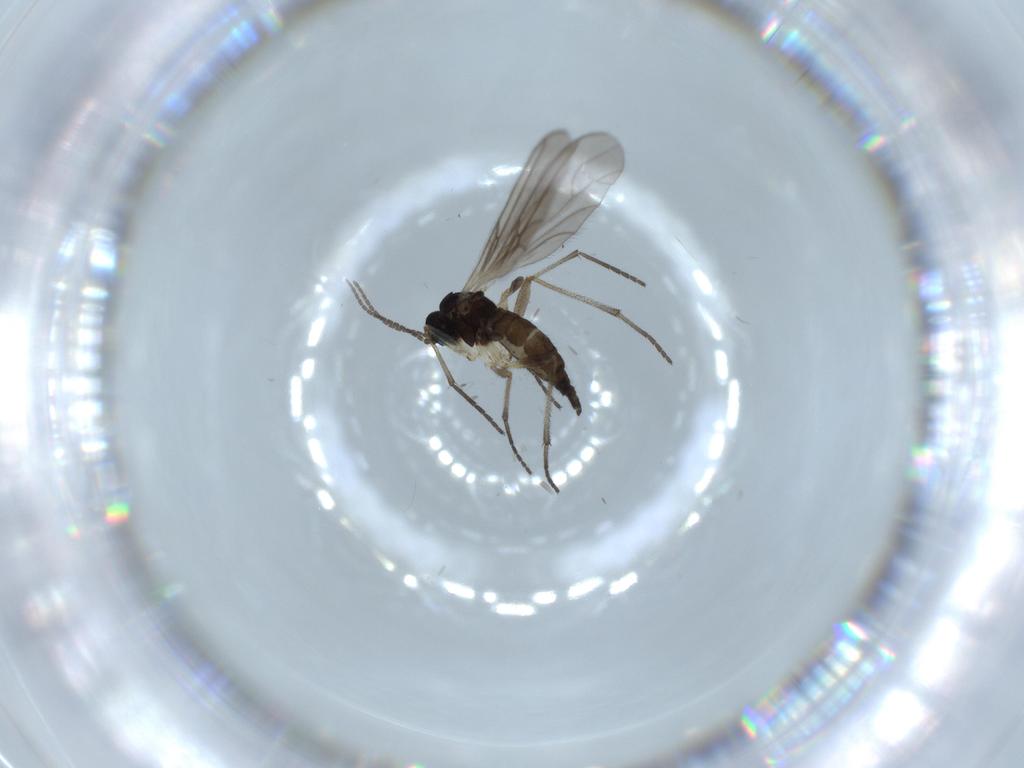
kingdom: Animalia
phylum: Arthropoda
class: Insecta
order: Diptera
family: Sciaridae
